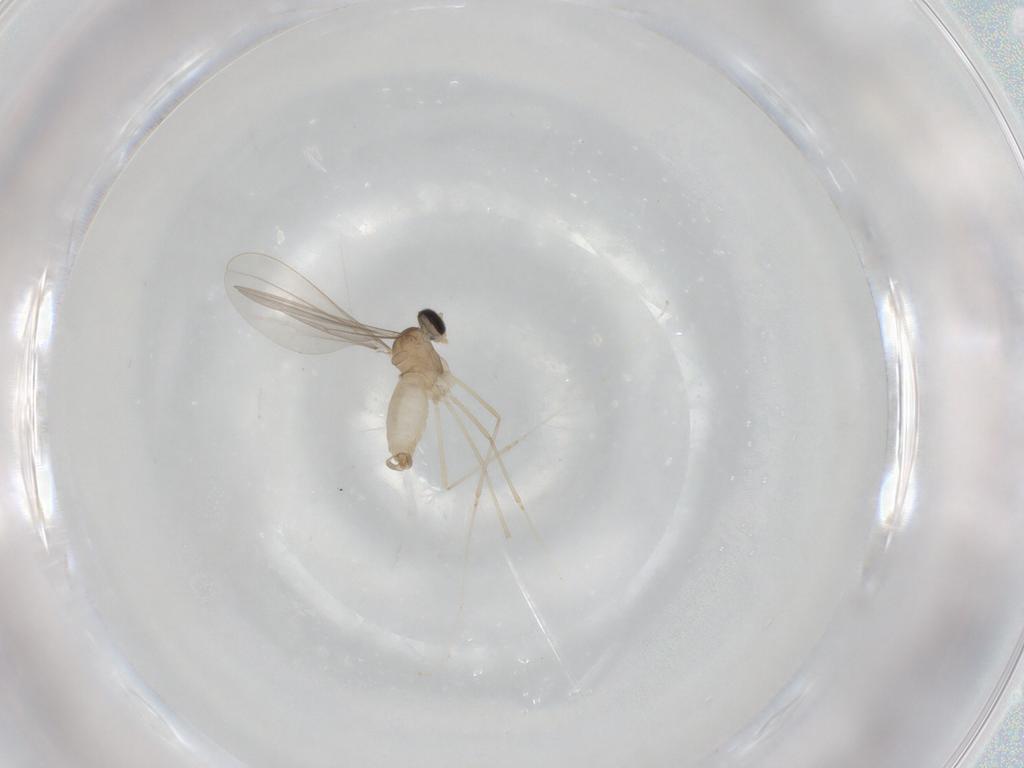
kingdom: Animalia
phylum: Arthropoda
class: Insecta
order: Diptera
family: Cecidomyiidae
